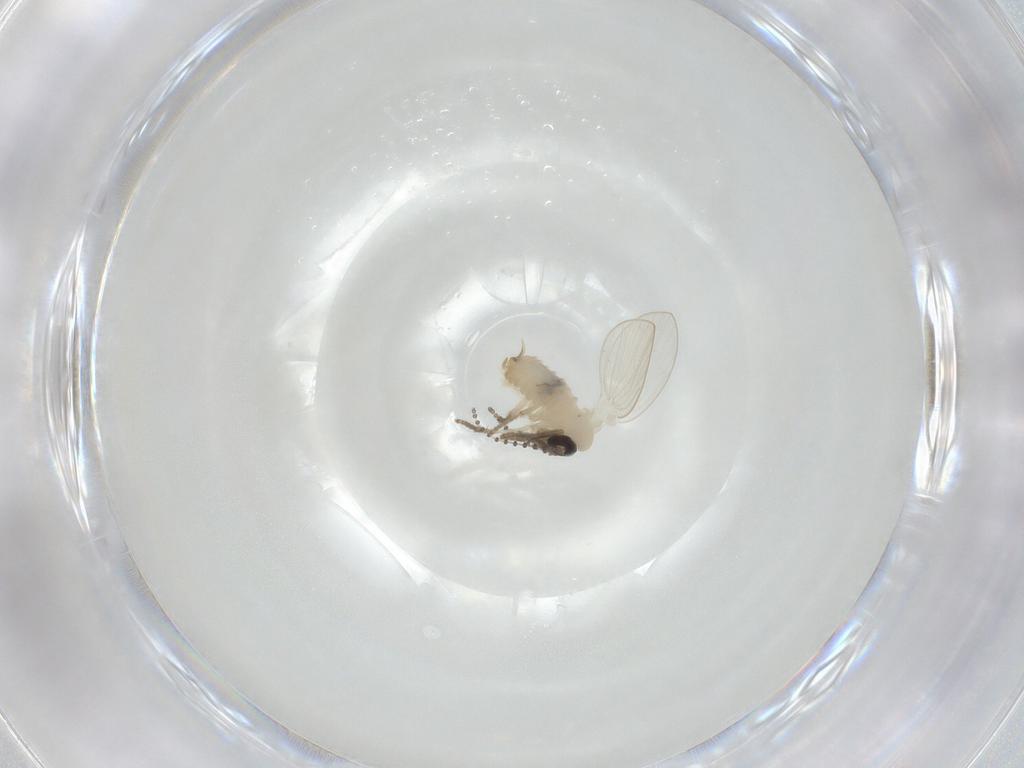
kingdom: Animalia
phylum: Arthropoda
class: Insecta
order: Diptera
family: Psychodidae
